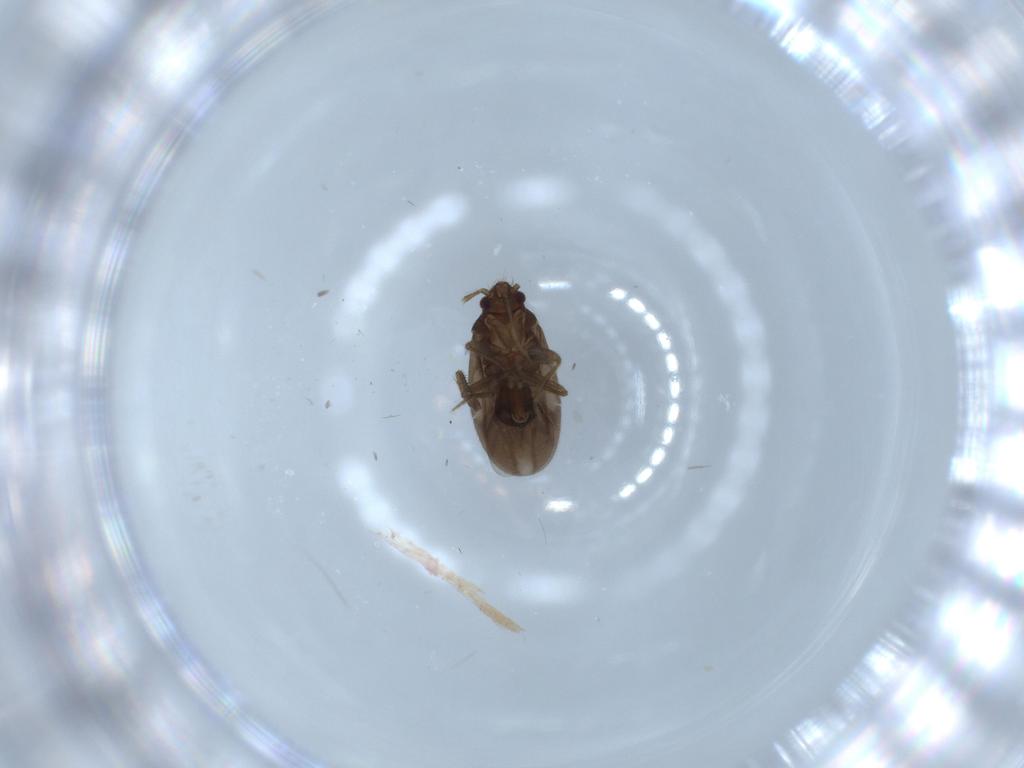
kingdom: Animalia
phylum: Arthropoda
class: Insecta
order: Hemiptera
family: Ceratocombidae
